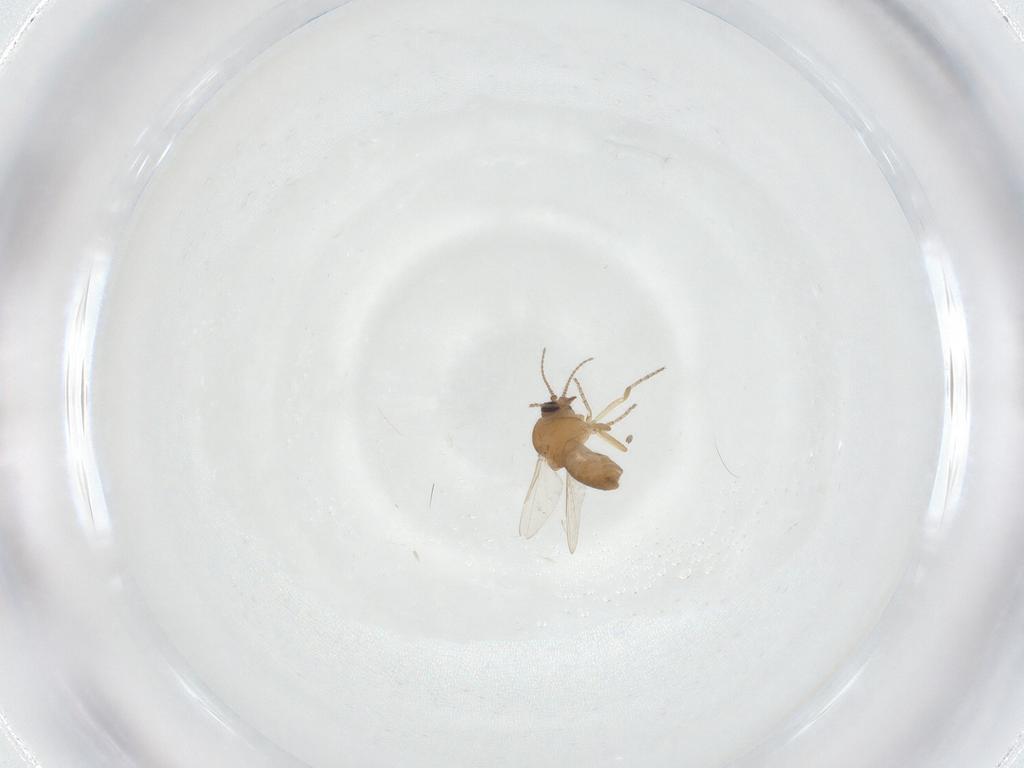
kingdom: Animalia
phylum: Arthropoda
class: Insecta
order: Diptera
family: Ceratopogonidae
